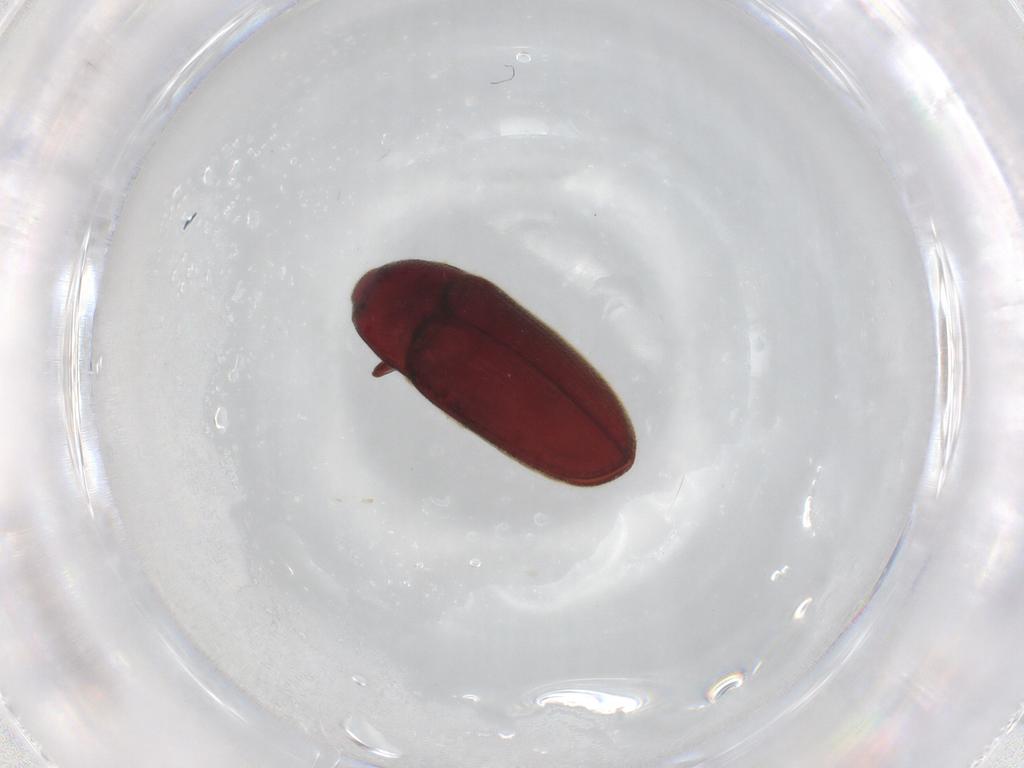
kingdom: Animalia
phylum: Arthropoda
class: Insecta
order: Coleoptera
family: Throscidae
